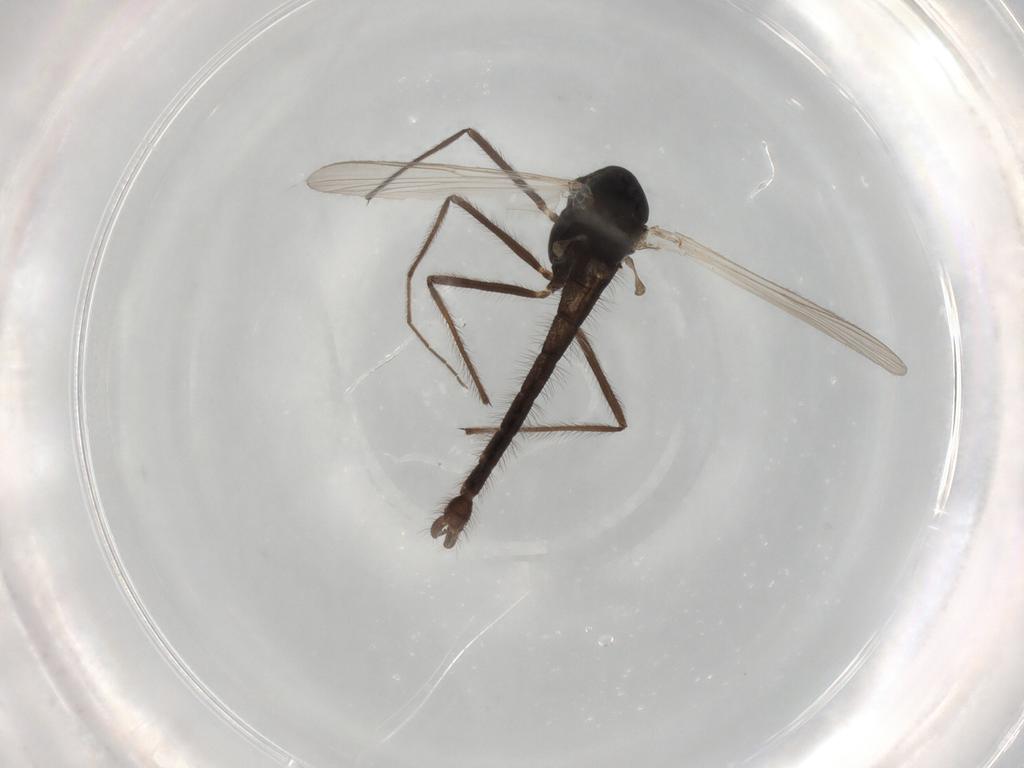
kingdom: Animalia
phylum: Arthropoda
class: Insecta
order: Diptera
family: Chironomidae
